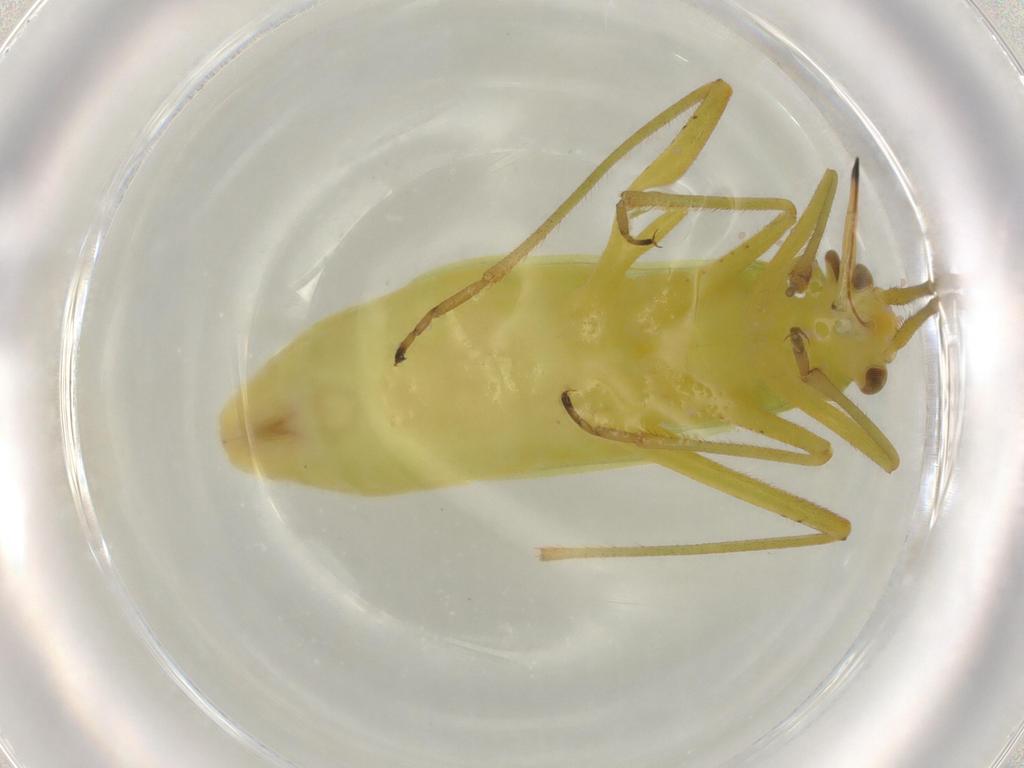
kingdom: Animalia
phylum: Arthropoda
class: Insecta
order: Hemiptera
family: Miridae
